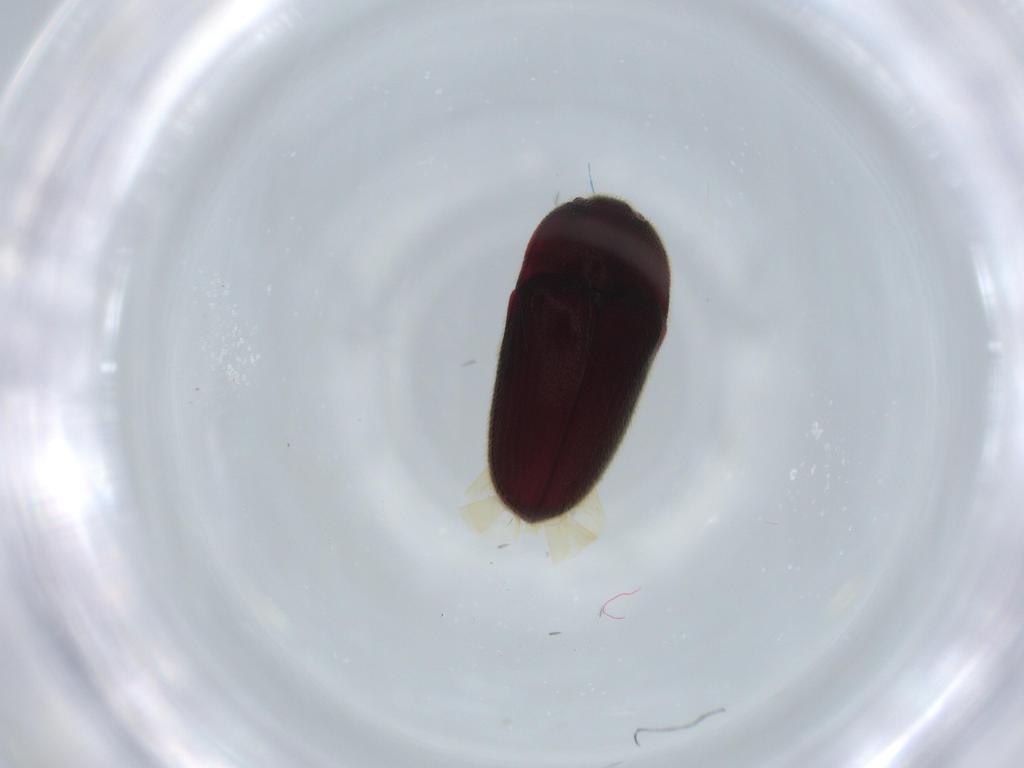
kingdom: Animalia
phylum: Arthropoda
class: Insecta
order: Coleoptera
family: Throscidae
